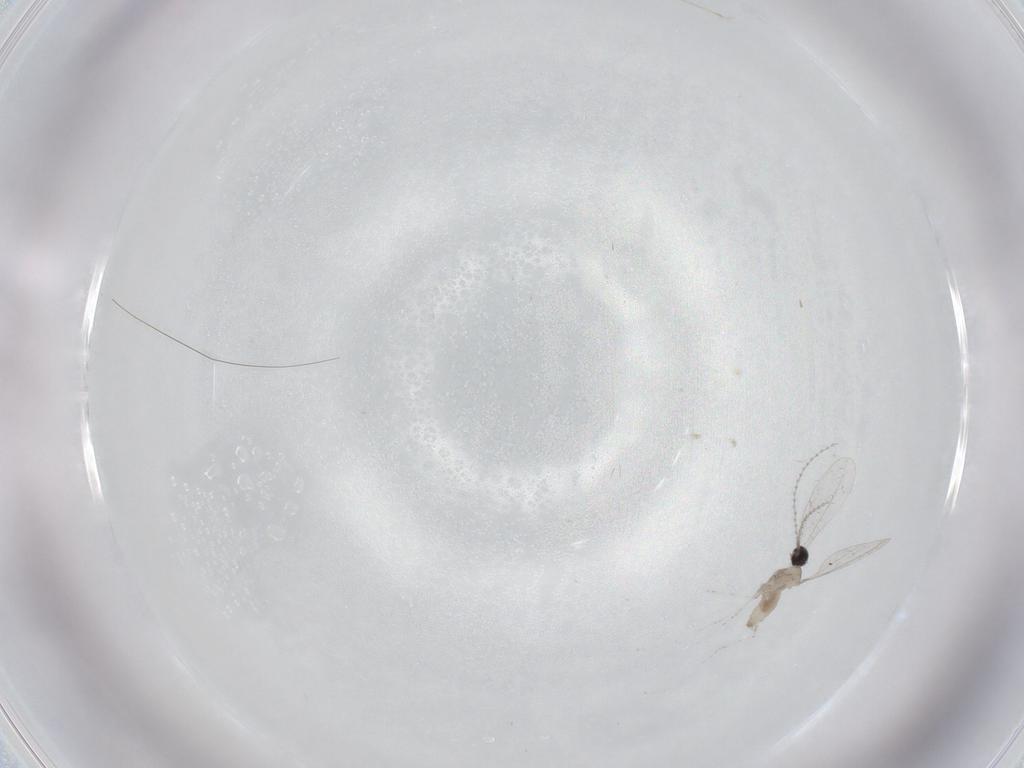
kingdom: Animalia
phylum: Arthropoda
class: Insecta
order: Diptera
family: Cecidomyiidae
